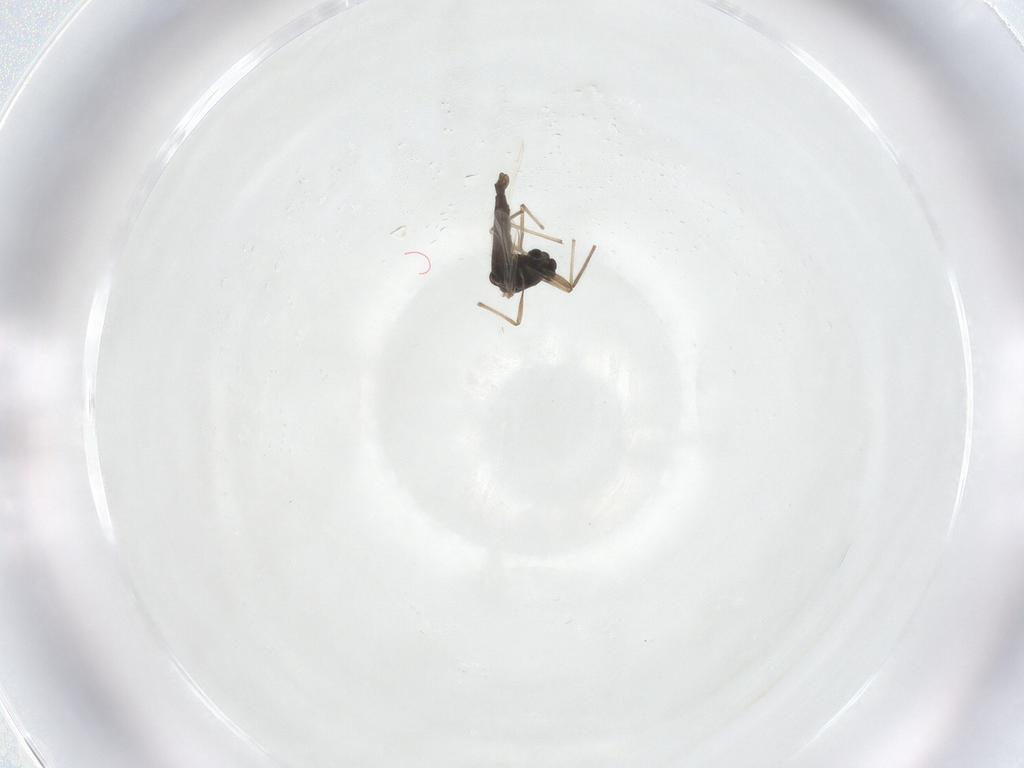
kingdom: Animalia
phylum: Arthropoda
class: Insecta
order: Diptera
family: Chironomidae
